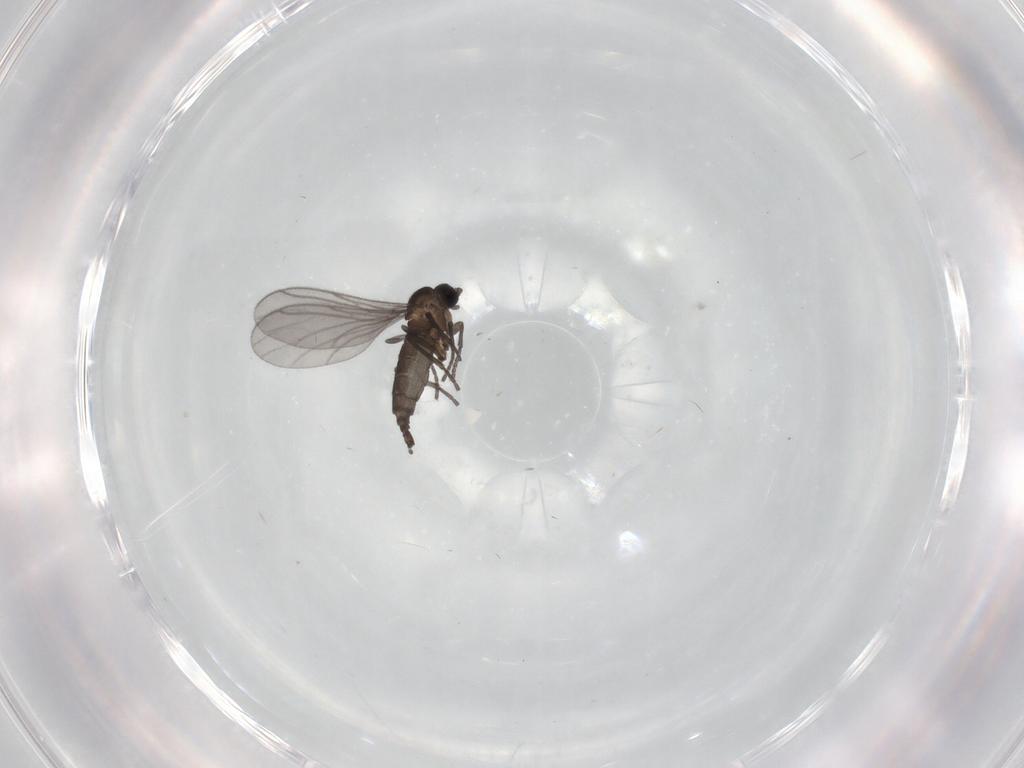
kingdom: Animalia
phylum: Arthropoda
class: Insecta
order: Diptera
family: Sciaridae
